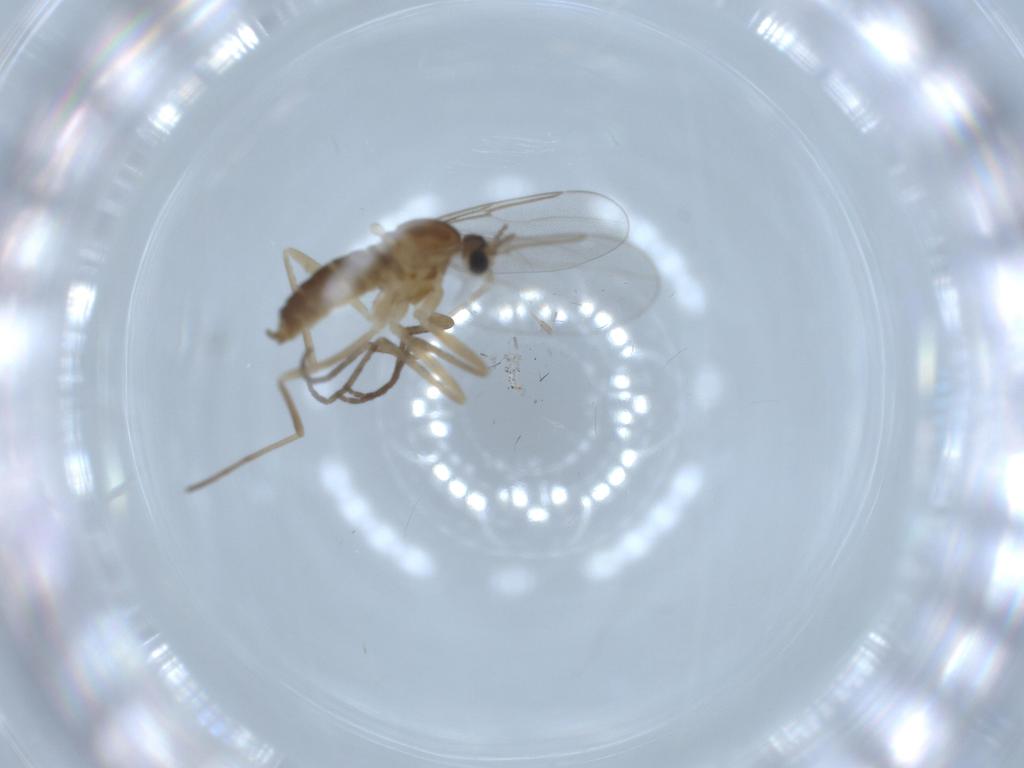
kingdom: Animalia
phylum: Arthropoda
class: Insecta
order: Diptera
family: Cecidomyiidae
